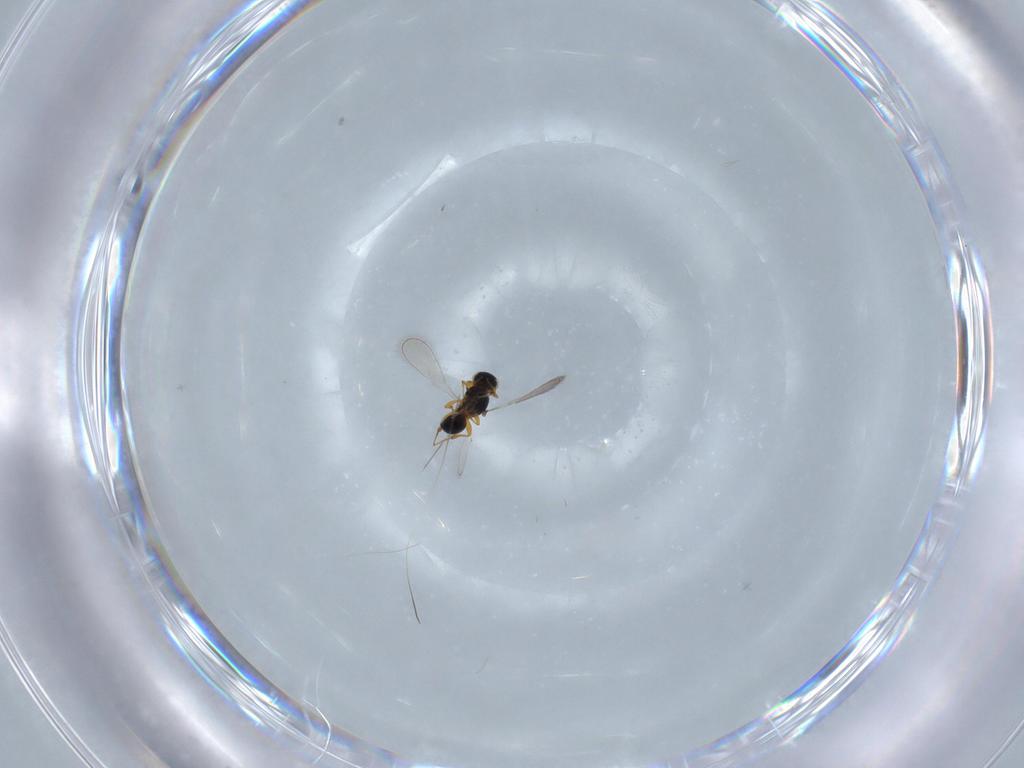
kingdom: Animalia
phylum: Arthropoda
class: Insecta
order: Hymenoptera
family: Platygastridae
